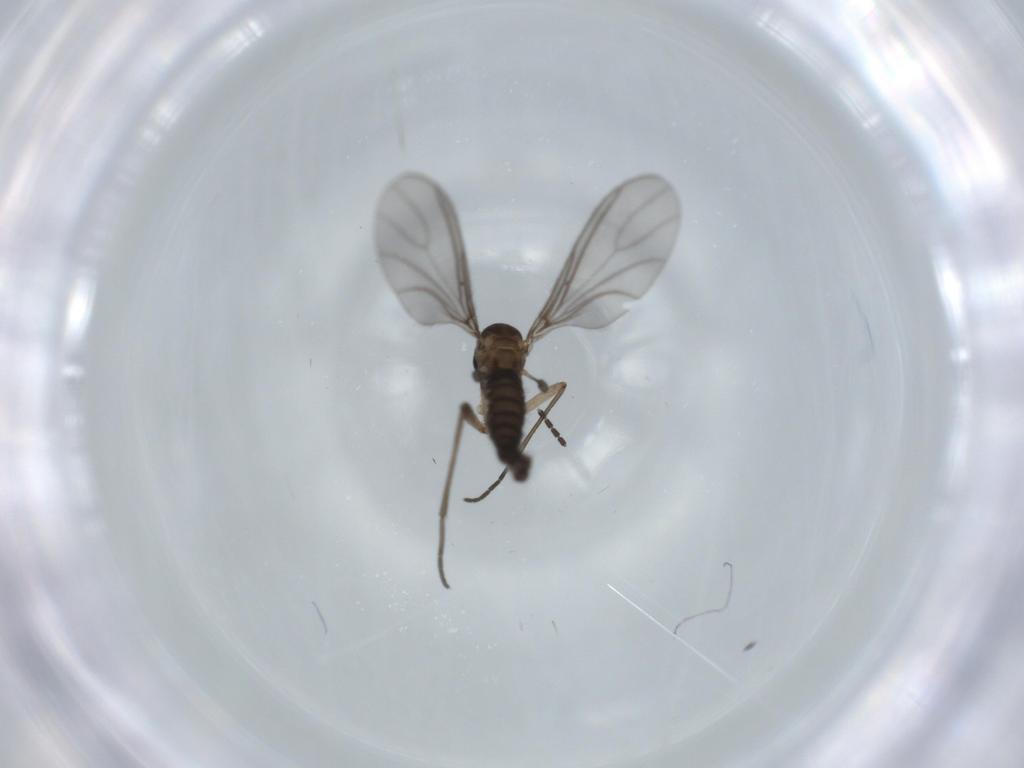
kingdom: Animalia
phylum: Arthropoda
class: Insecta
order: Diptera
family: Sciaridae
